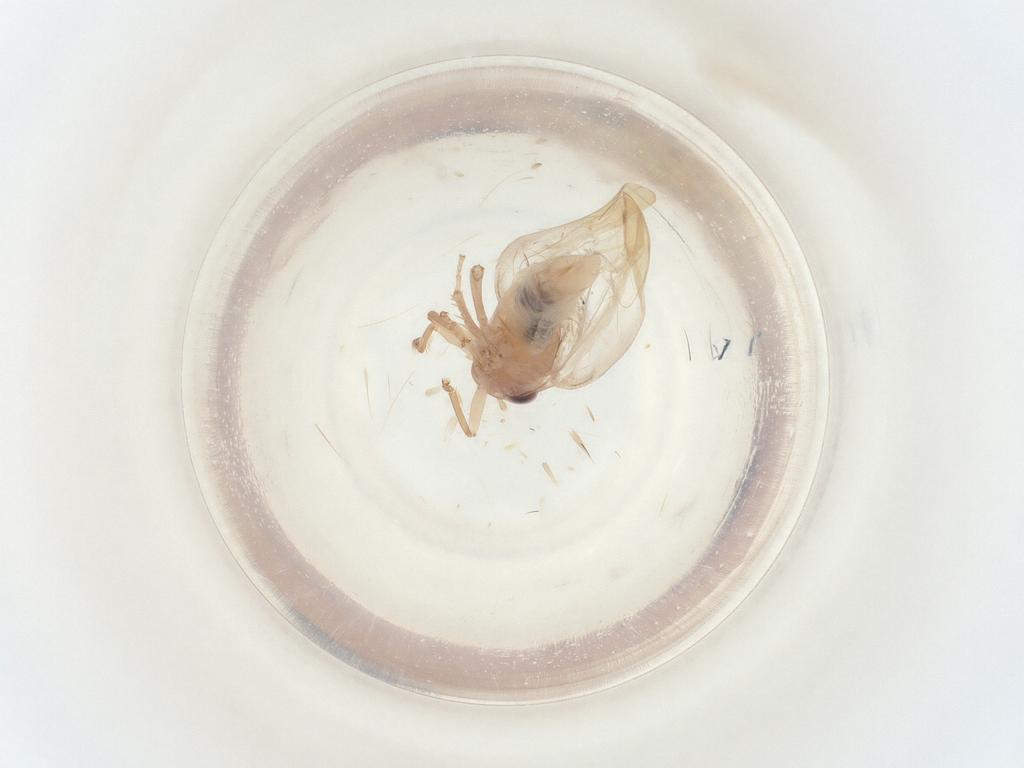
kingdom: Animalia
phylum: Arthropoda
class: Insecta
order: Hemiptera
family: Cicadellidae
